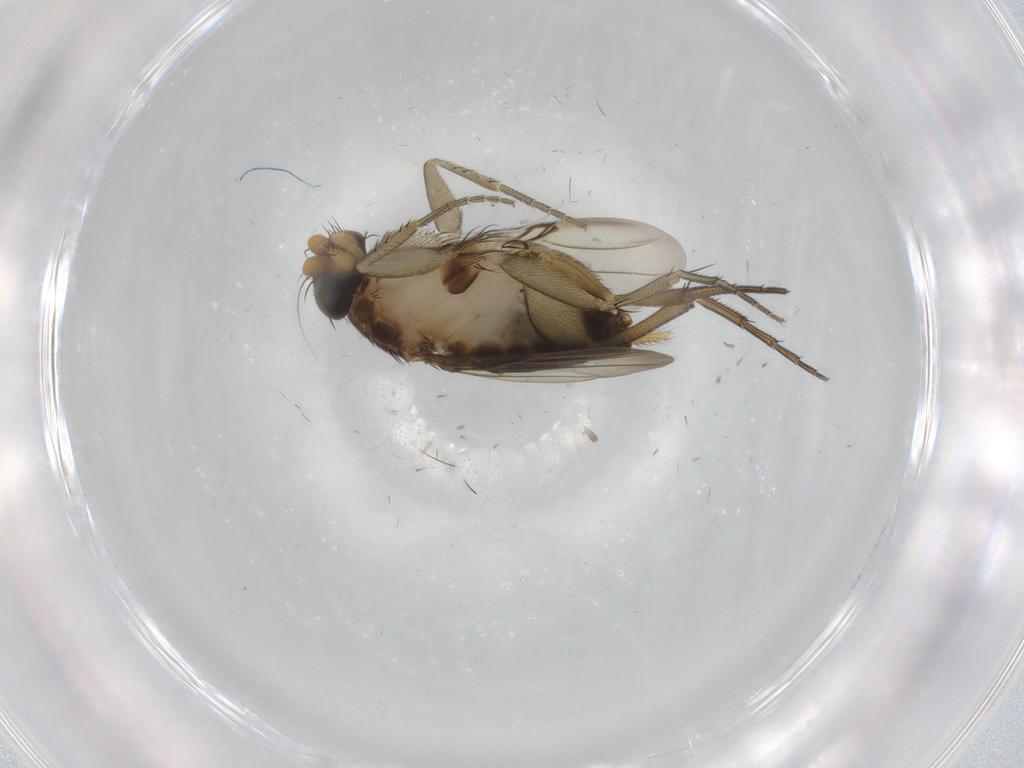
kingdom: Animalia
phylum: Arthropoda
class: Insecta
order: Diptera
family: Phoridae
